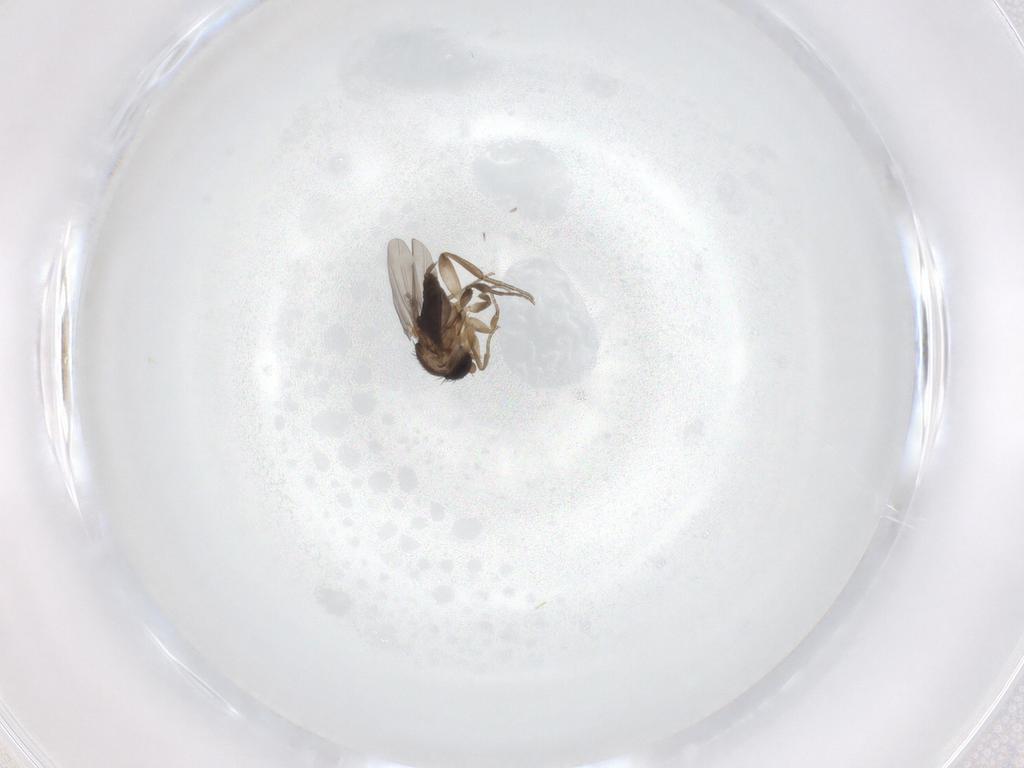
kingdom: Animalia
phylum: Arthropoda
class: Insecta
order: Diptera
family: Phoridae
